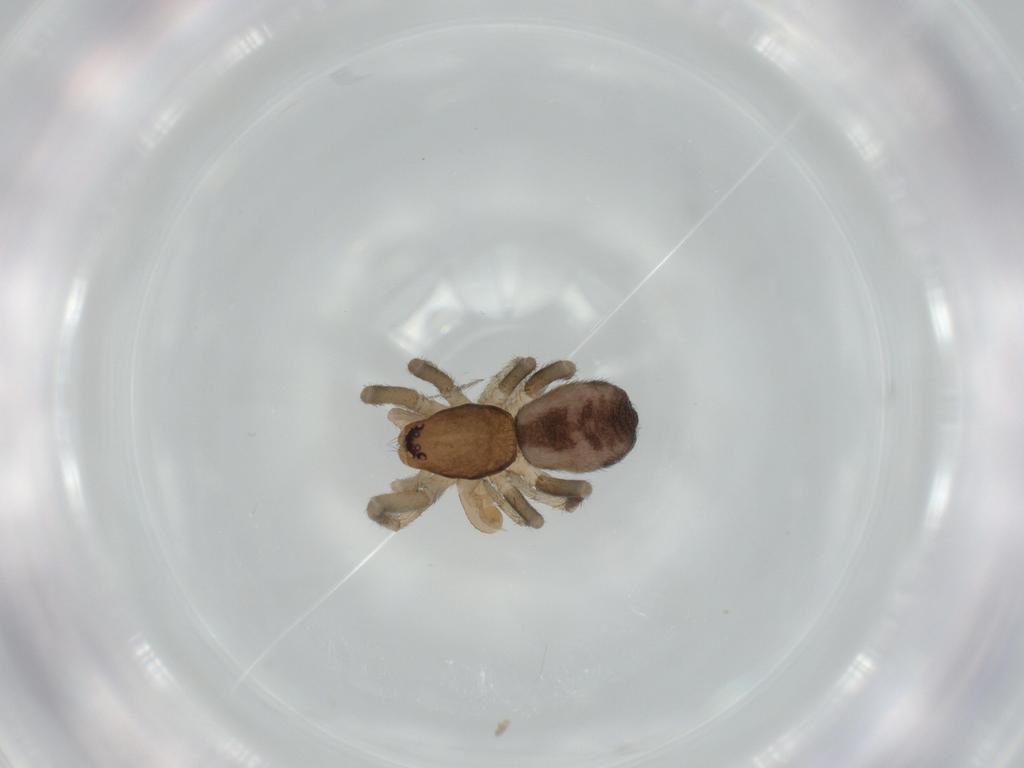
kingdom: Animalia
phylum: Arthropoda
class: Arachnida
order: Araneae
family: Gnaphosidae
